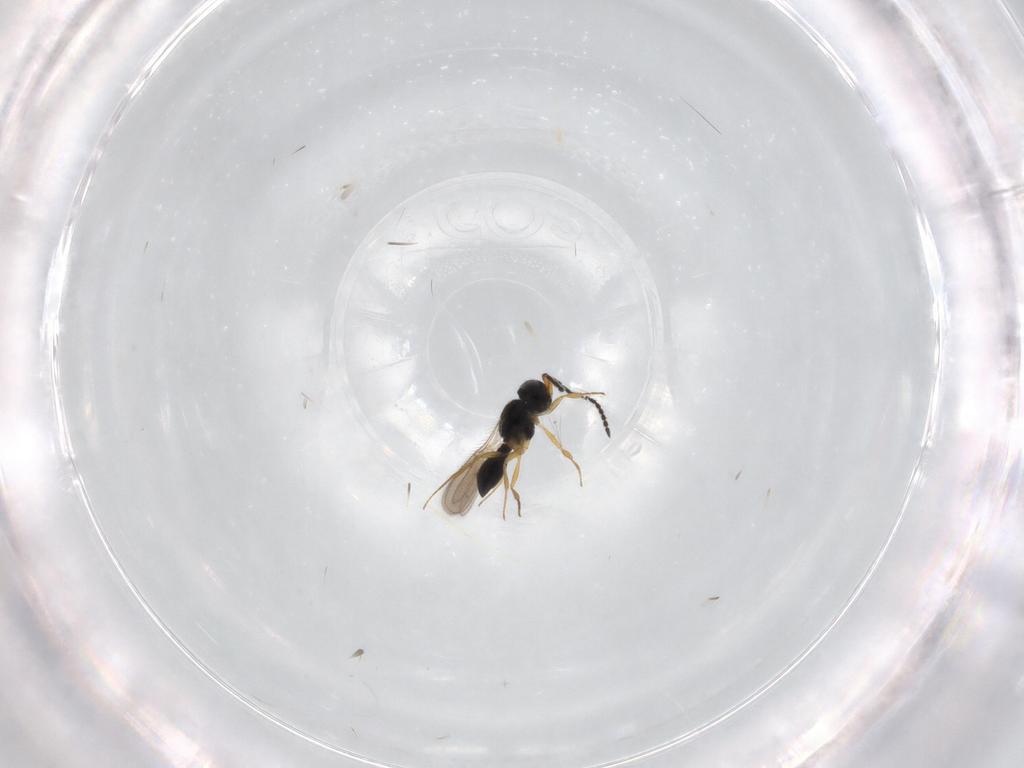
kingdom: Animalia
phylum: Arthropoda
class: Insecta
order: Hymenoptera
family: Scelionidae
